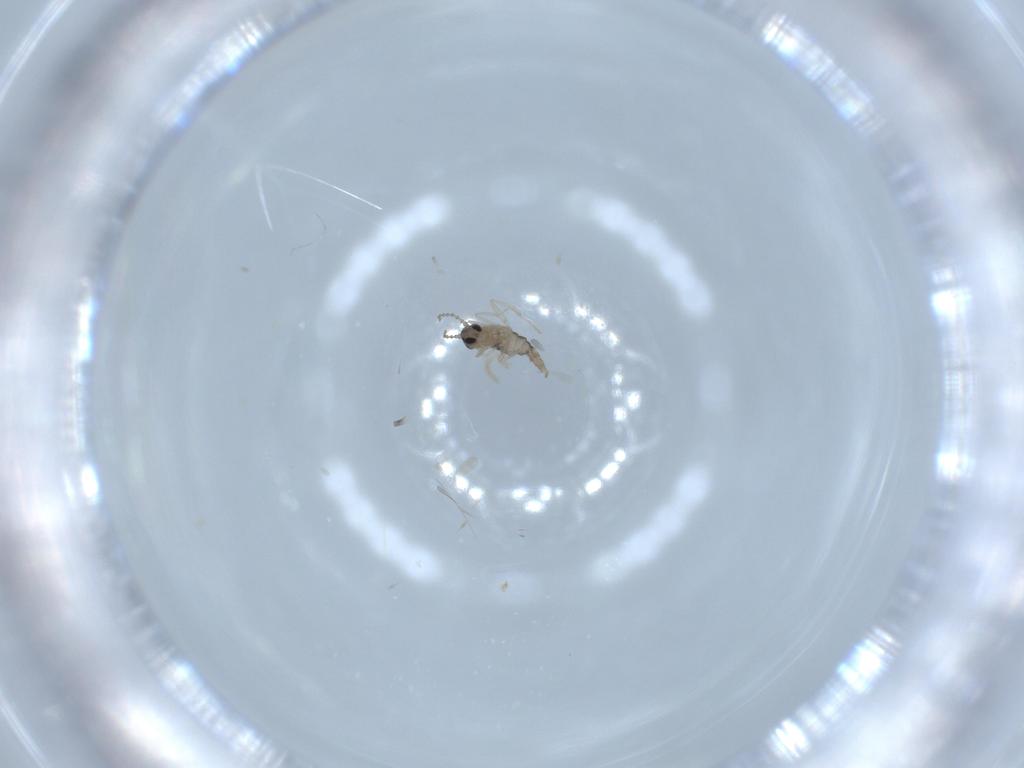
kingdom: Animalia
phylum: Arthropoda
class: Insecta
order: Diptera
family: Cecidomyiidae
